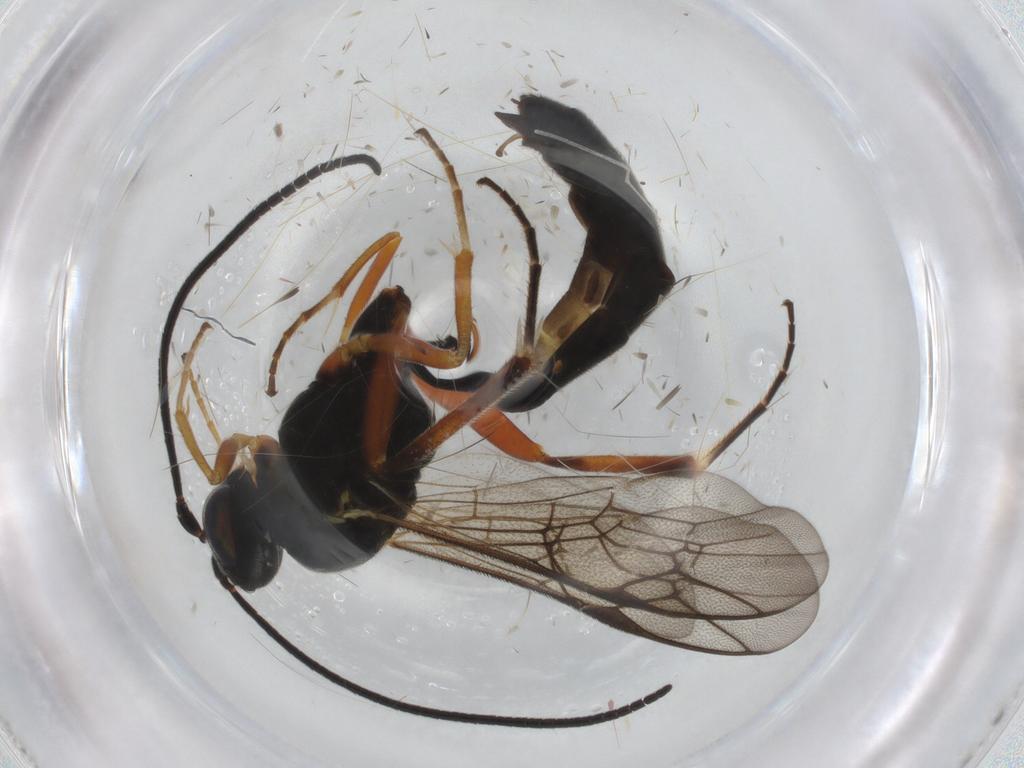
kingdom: Animalia
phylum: Arthropoda
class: Insecta
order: Hymenoptera
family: Ichneumonidae
